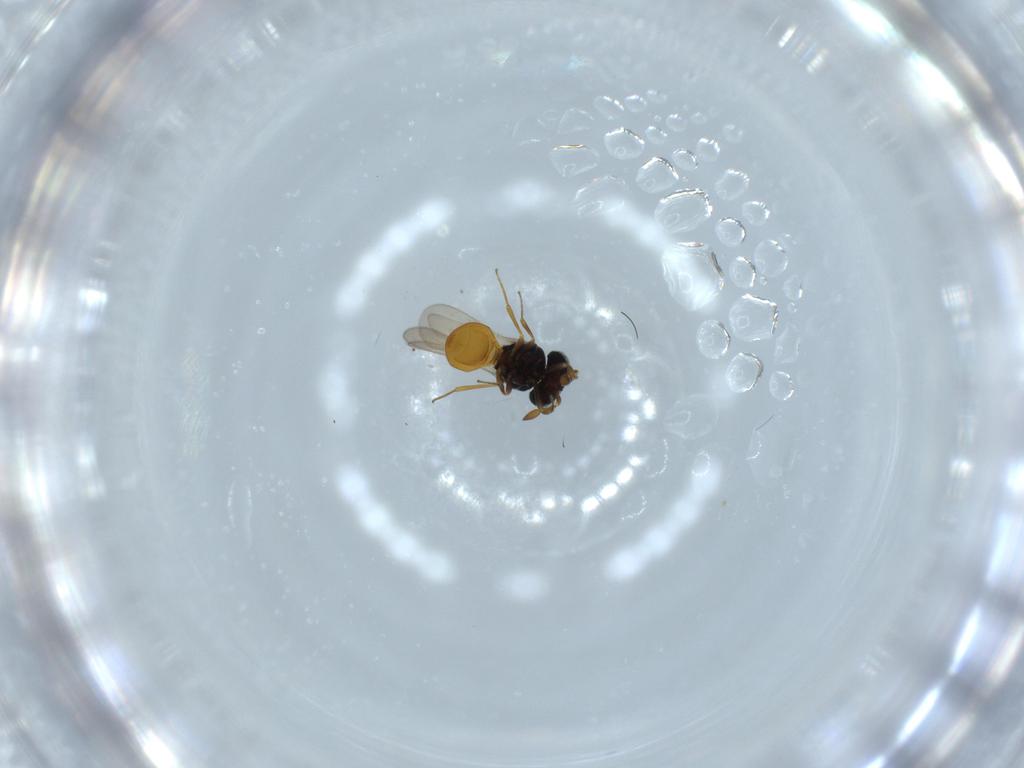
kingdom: Animalia
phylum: Arthropoda
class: Insecta
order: Hymenoptera
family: Scelionidae
